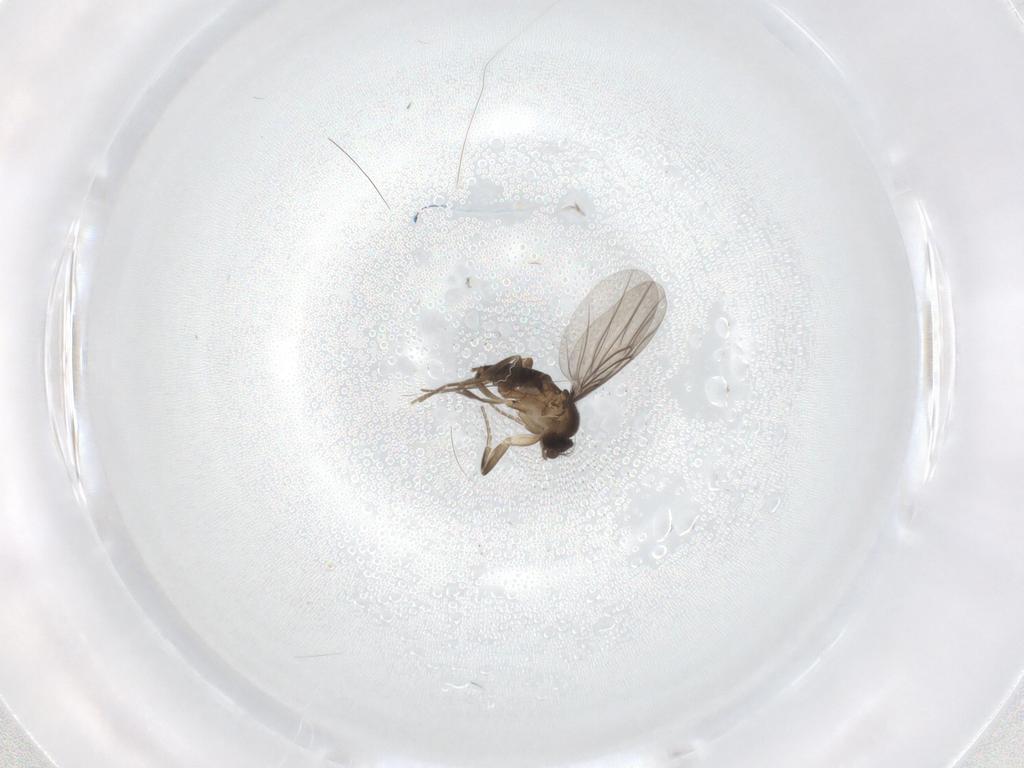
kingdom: Animalia
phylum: Arthropoda
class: Insecta
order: Diptera
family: Phoridae
